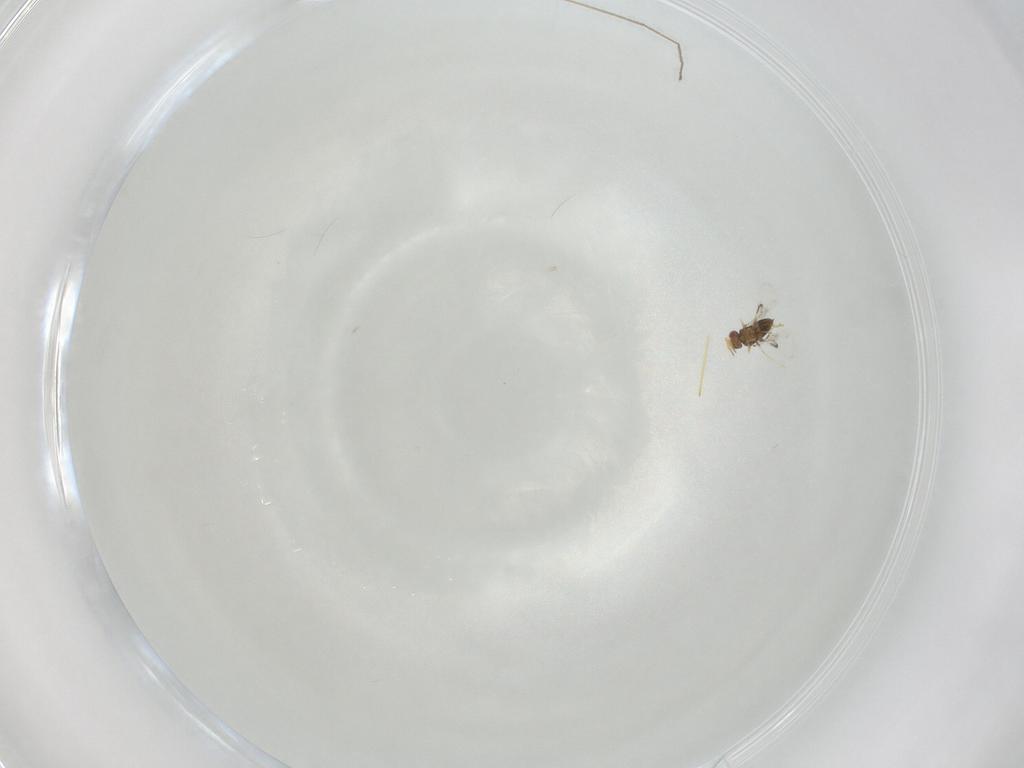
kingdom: Animalia
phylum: Arthropoda
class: Insecta
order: Hymenoptera
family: Trichogrammatidae
